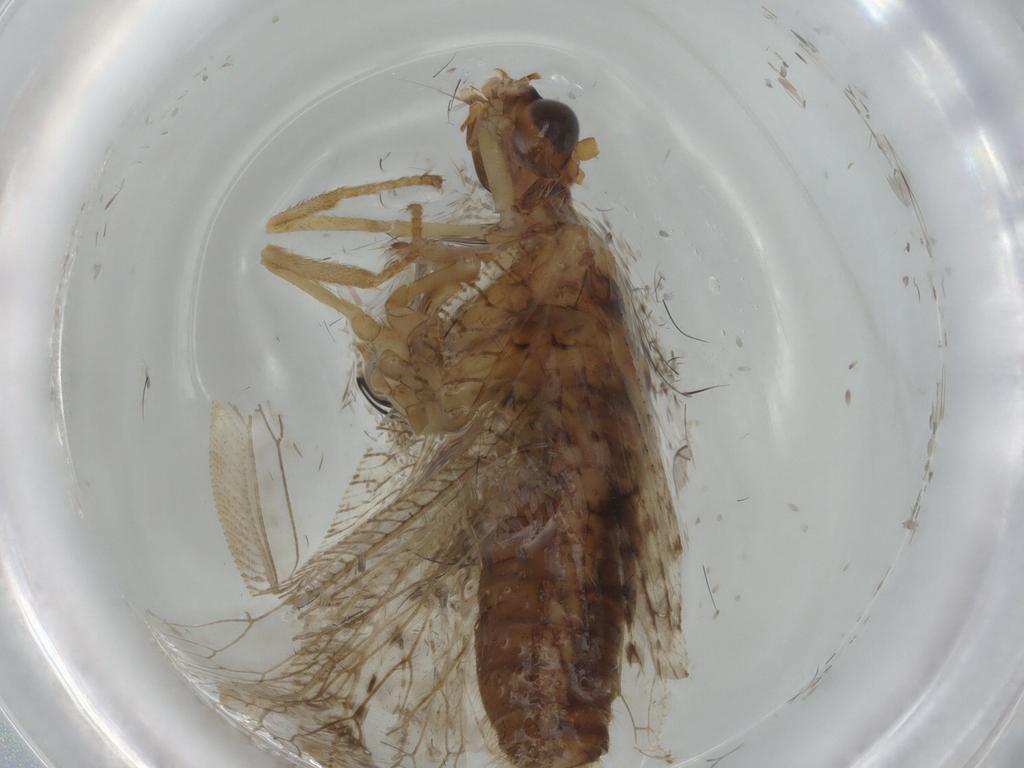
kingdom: Animalia
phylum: Arthropoda
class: Insecta
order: Neuroptera
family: Hemerobiidae
